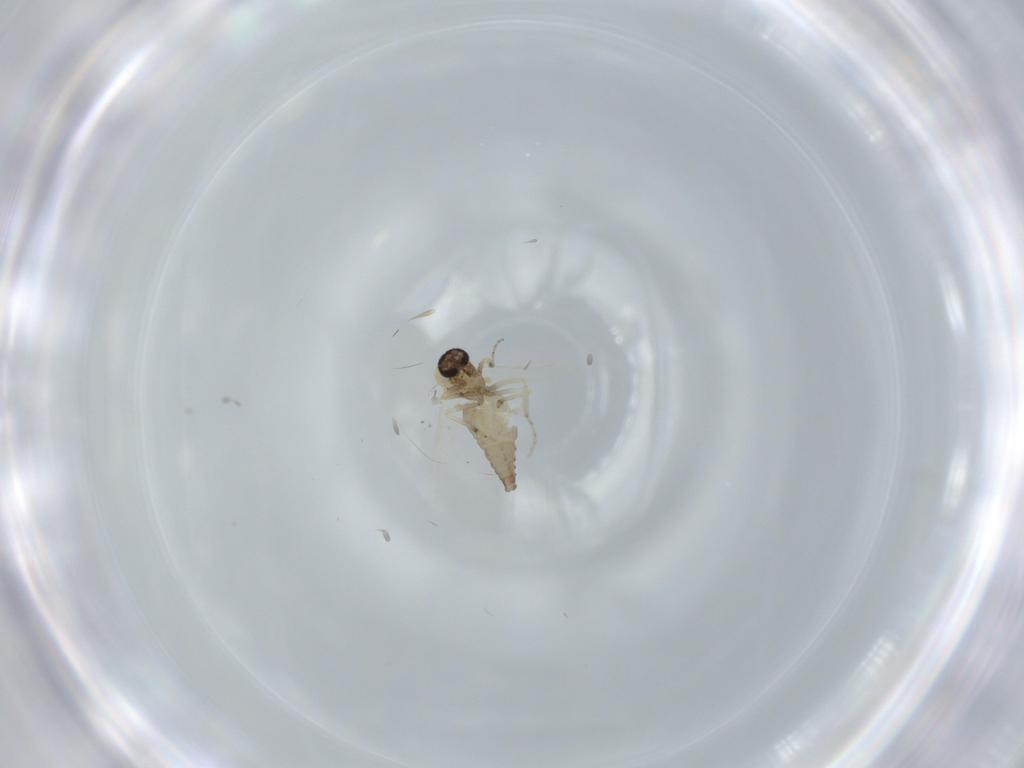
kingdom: Animalia
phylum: Arthropoda
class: Insecta
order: Diptera
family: Ceratopogonidae
